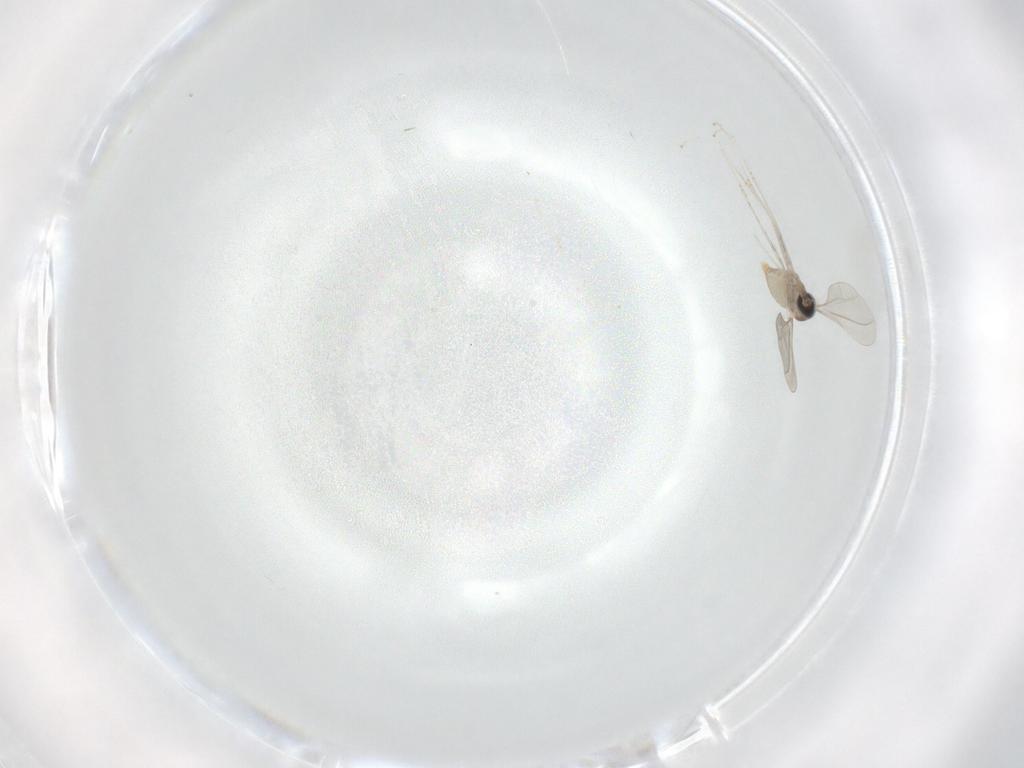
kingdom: Animalia
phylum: Arthropoda
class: Insecta
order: Diptera
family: Cecidomyiidae
